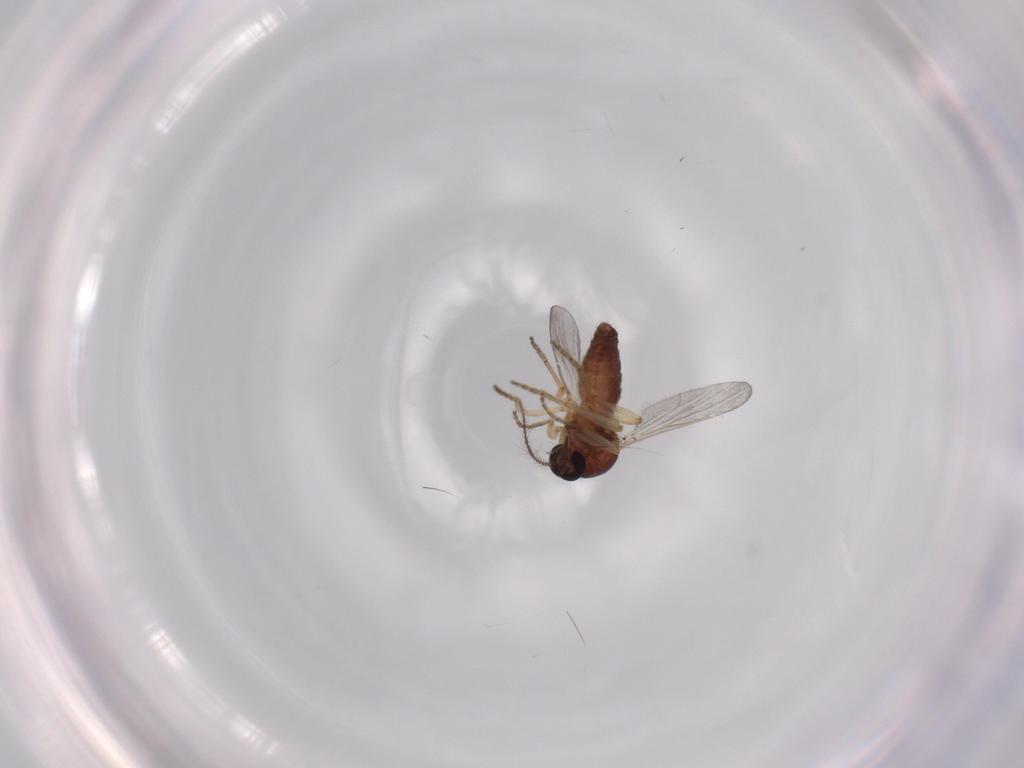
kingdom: Animalia
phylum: Arthropoda
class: Insecta
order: Diptera
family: Ceratopogonidae
